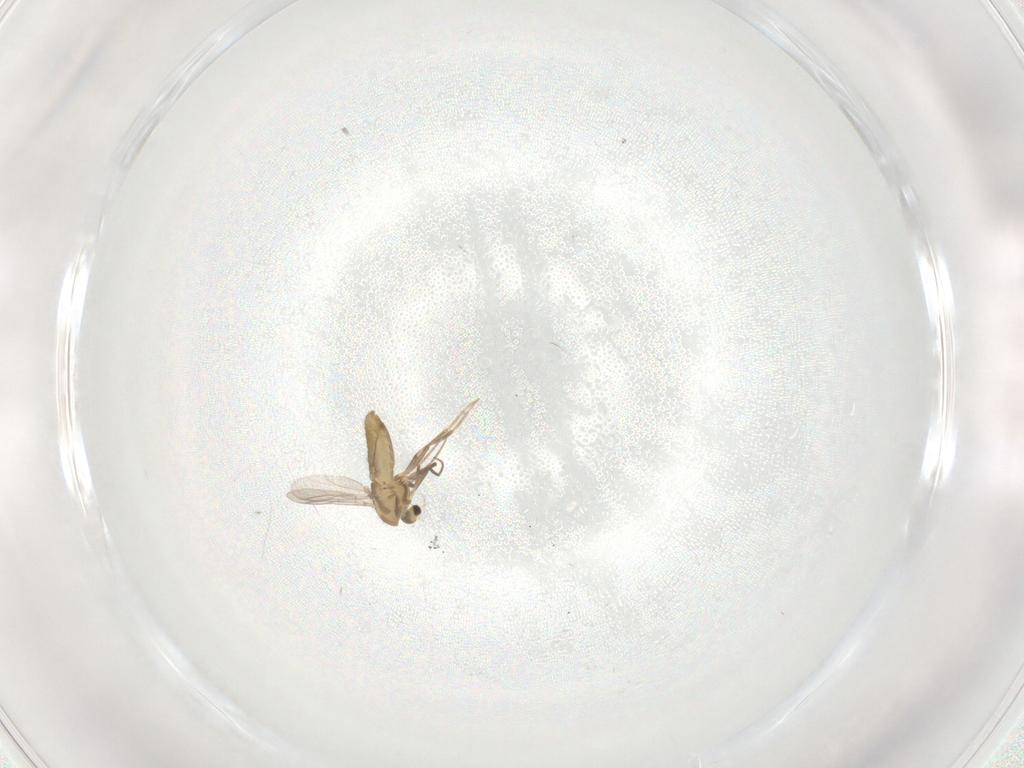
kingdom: Animalia
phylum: Arthropoda
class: Insecta
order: Diptera
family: Chironomidae
